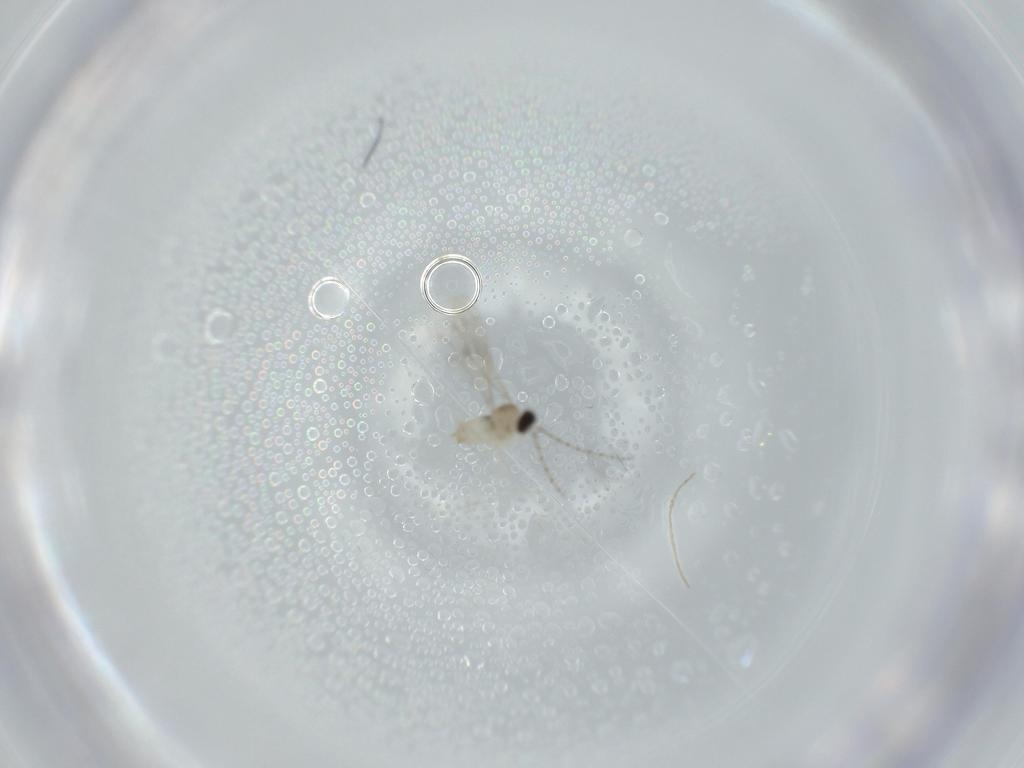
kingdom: Animalia
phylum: Arthropoda
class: Insecta
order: Diptera
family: Cecidomyiidae
